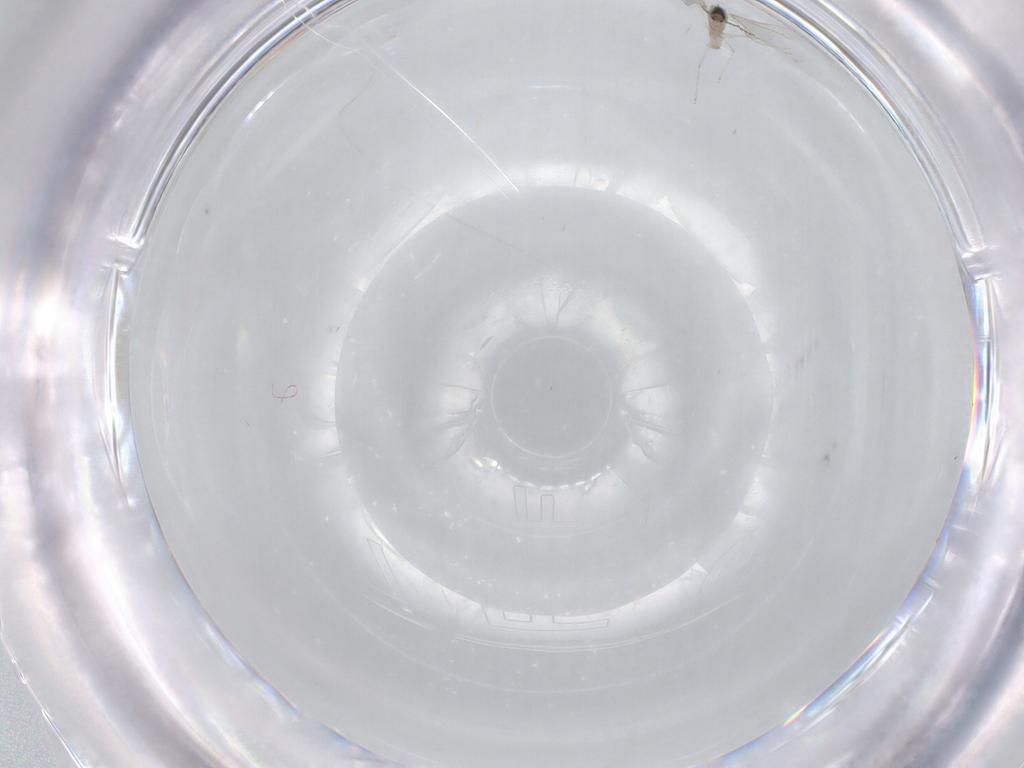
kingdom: Animalia
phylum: Arthropoda
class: Insecta
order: Diptera
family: Cecidomyiidae
